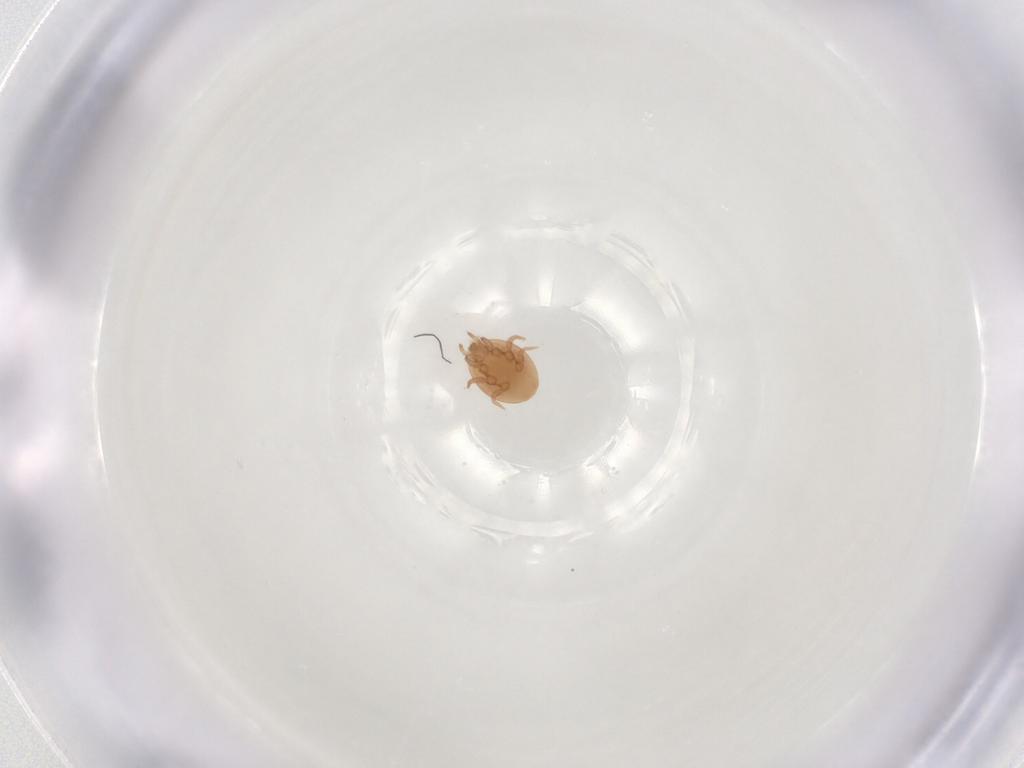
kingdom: Animalia
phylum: Arthropoda
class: Arachnida
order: Mesostigmata
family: Trematuridae
